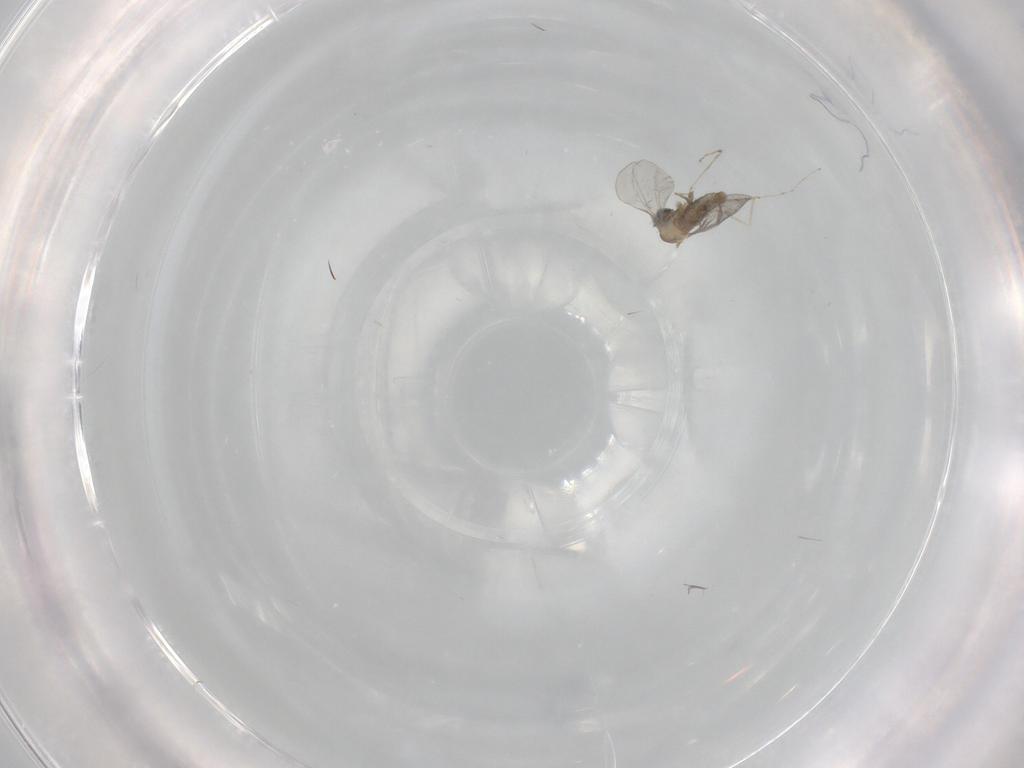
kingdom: Animalia
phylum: Arthropoda
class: Insecta
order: Diptera
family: Cecidomyiidae
